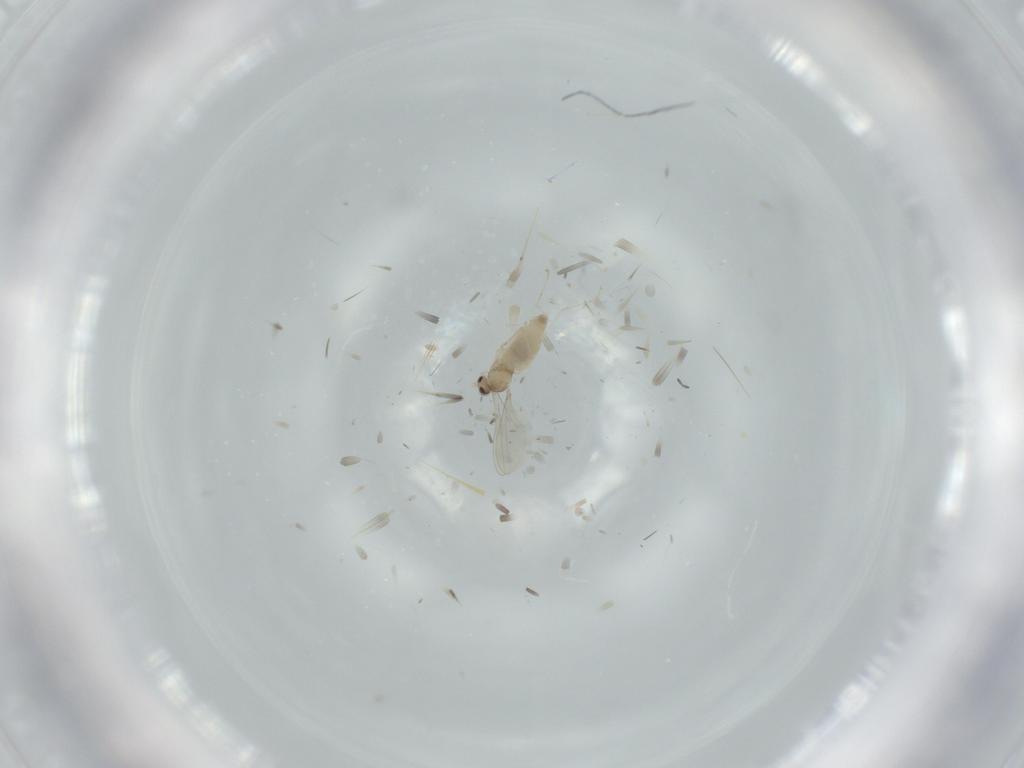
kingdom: Animalia
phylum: Arthropoda
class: Insecta
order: Diptera
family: Cecidomyiidae
